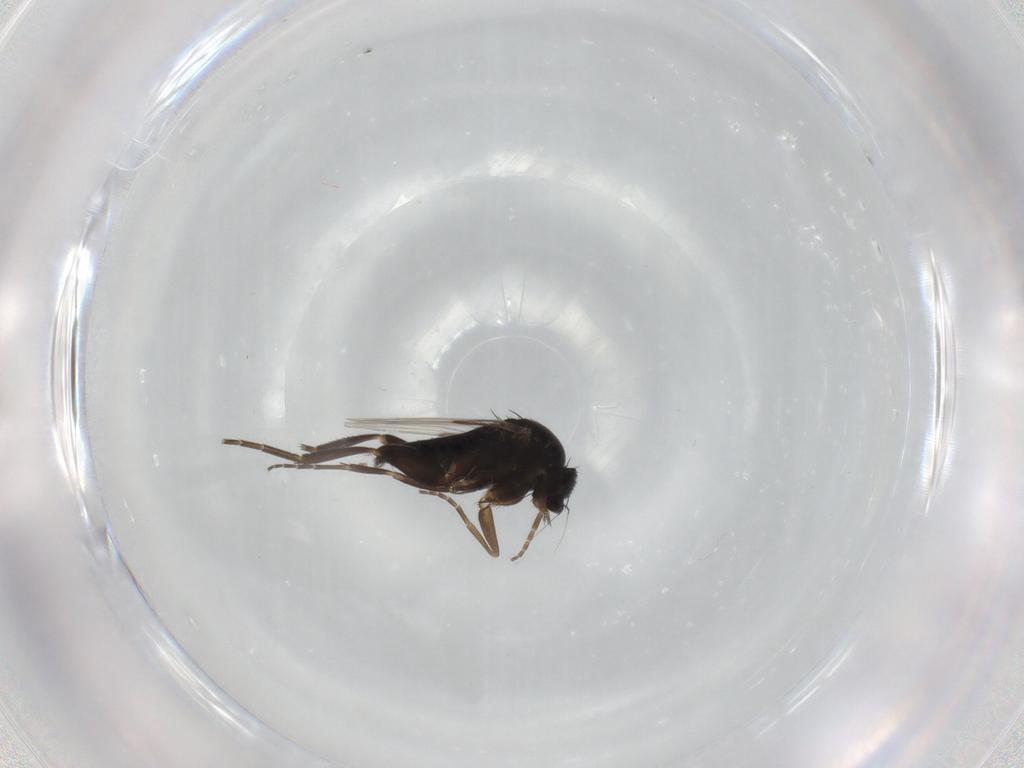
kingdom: Animalia
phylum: Arthropoda
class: Insecta
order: Diptera
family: Phoridae
